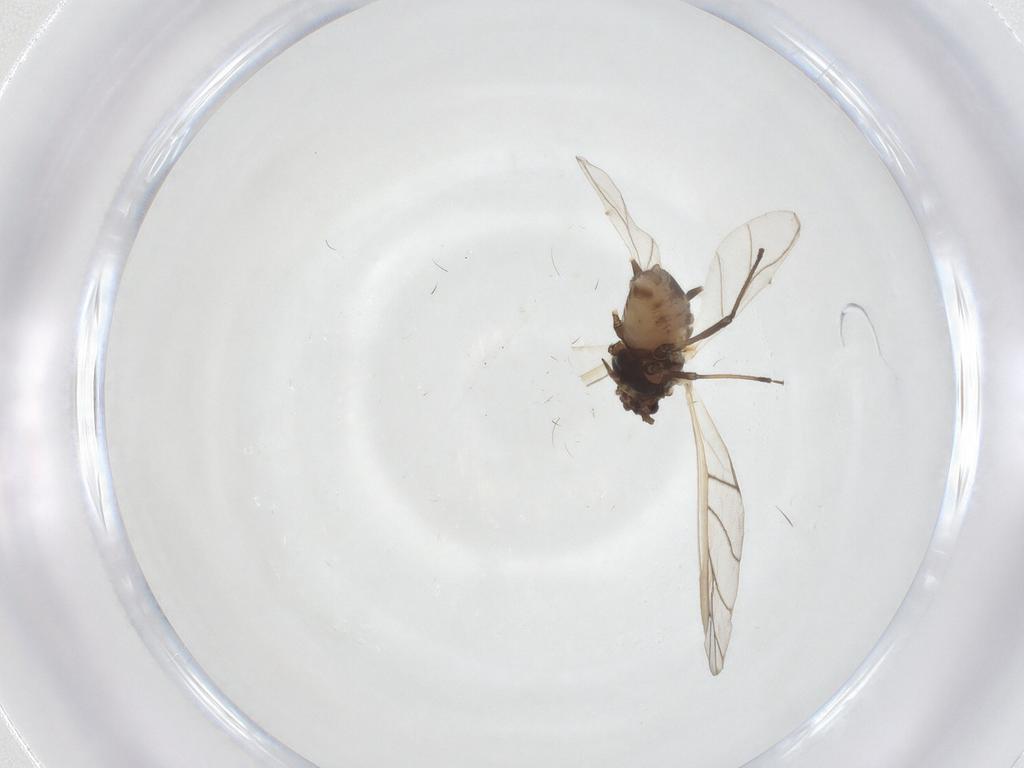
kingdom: Animalia
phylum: Arthropoda
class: Insecta
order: Hemiptera
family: Aphididae
